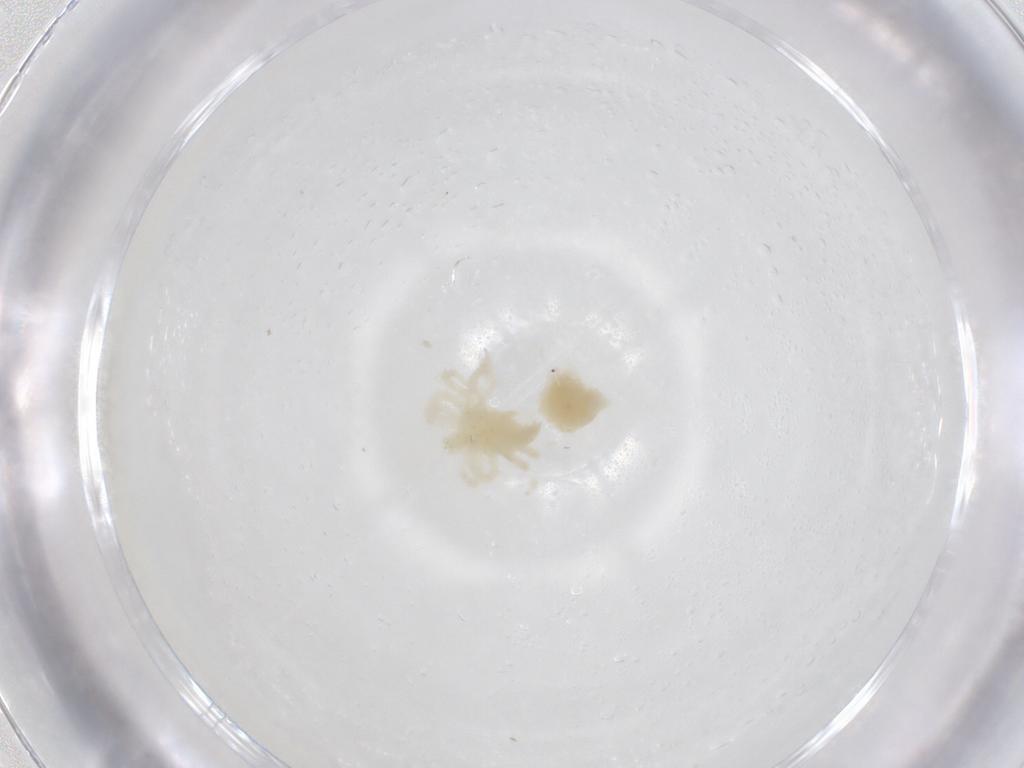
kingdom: Animalia
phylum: Arthropoda
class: Arachnida
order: Trombidiformes
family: Anystidae
